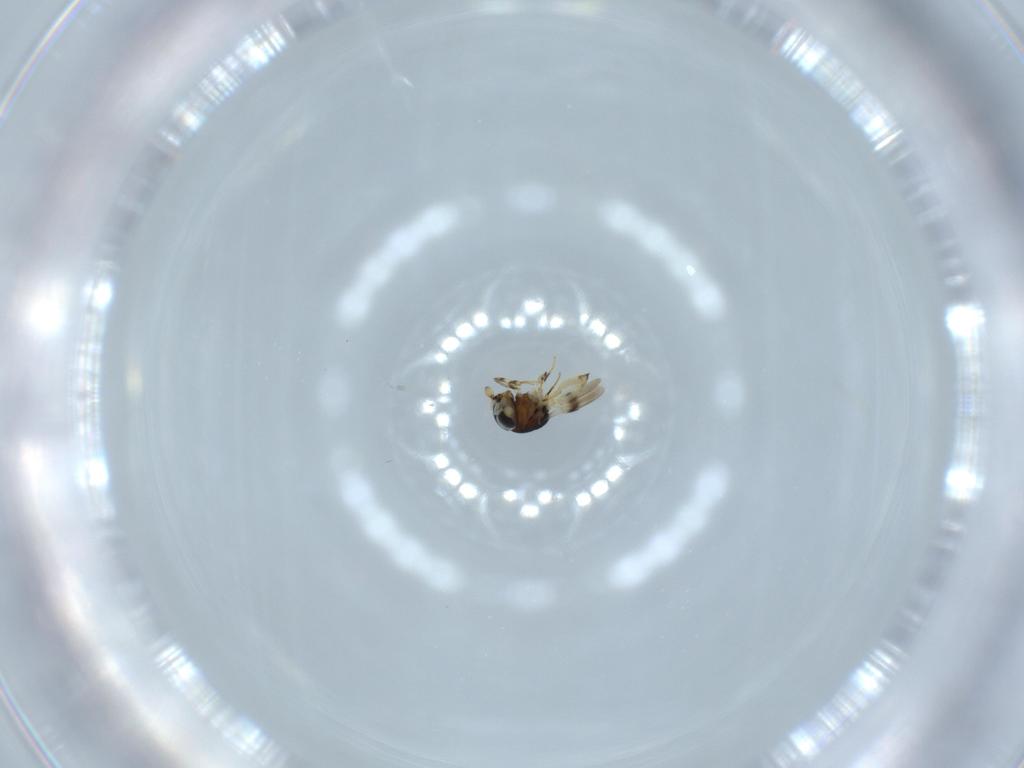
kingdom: Animalia
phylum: Arthropoda
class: Insecta
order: Hymenoptera
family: Scelionidae
